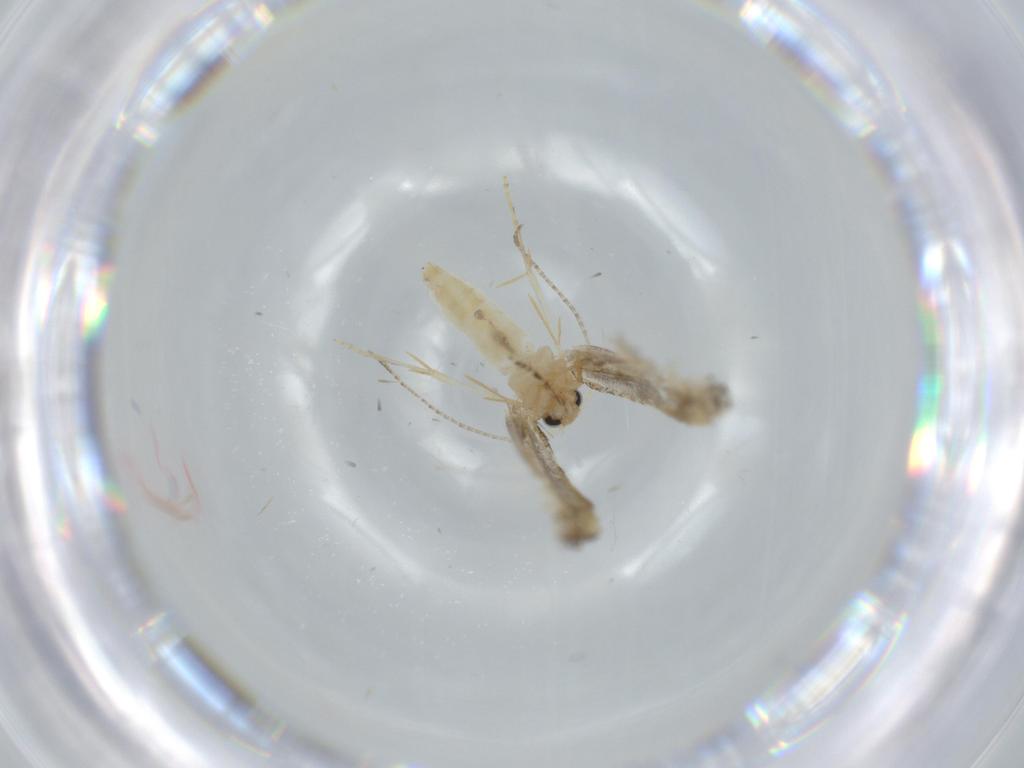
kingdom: Animalia
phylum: Arthropoda
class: Insecta
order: Lepidoptera
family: Bucculatricidae
